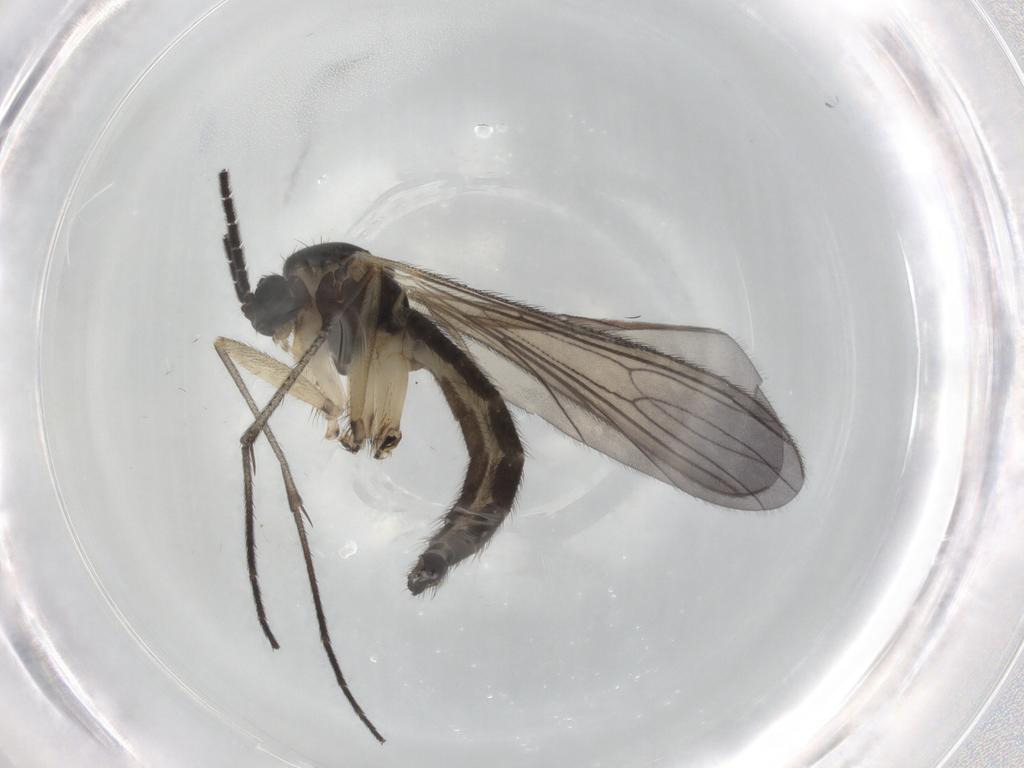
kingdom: Animalia
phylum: Arthropoda
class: Insecta
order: Diptera
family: Sciaridae
